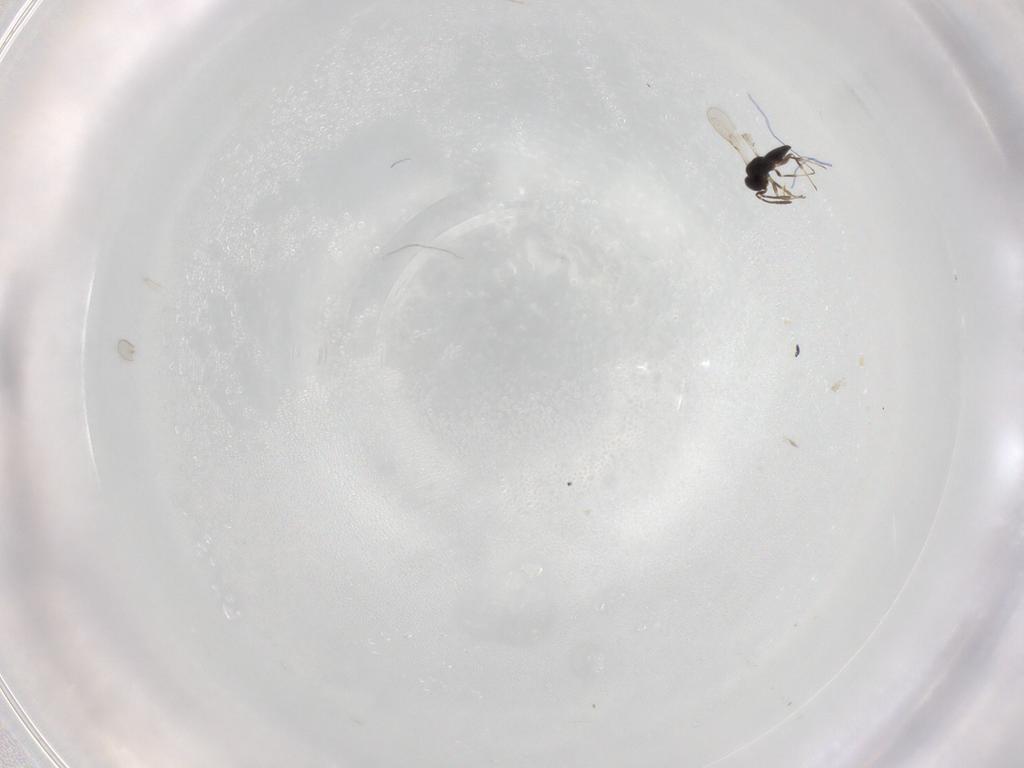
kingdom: Animalia
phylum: Arthropoda
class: Insecta
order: Hymenoptera
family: Scelionidae
